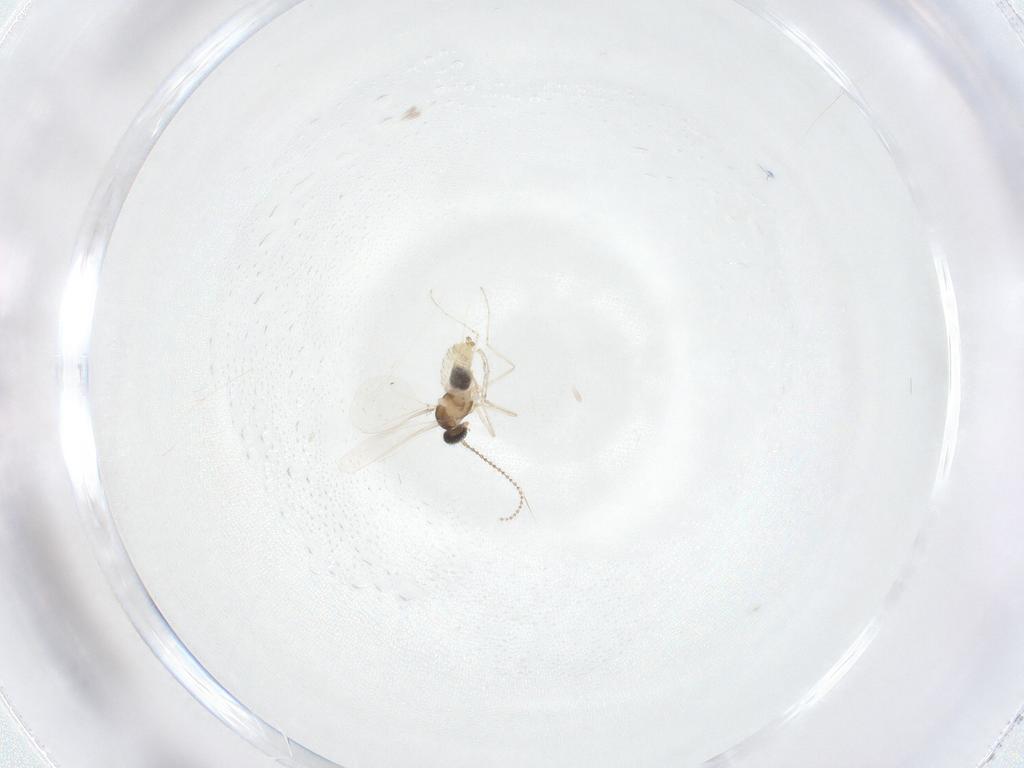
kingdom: Animalia
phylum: Arthropoda
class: Insecta
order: Diptera
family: Cecidomyiidae
